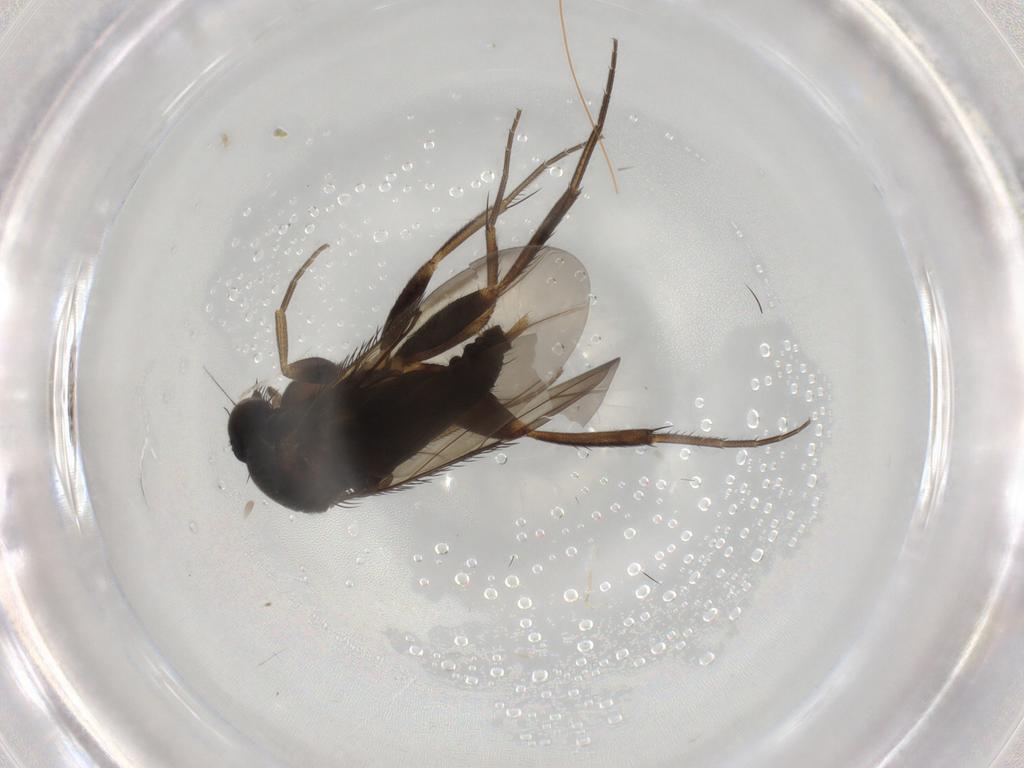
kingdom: Animalia
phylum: Arthropoda
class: Insecta
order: Diptera
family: Phoridae
